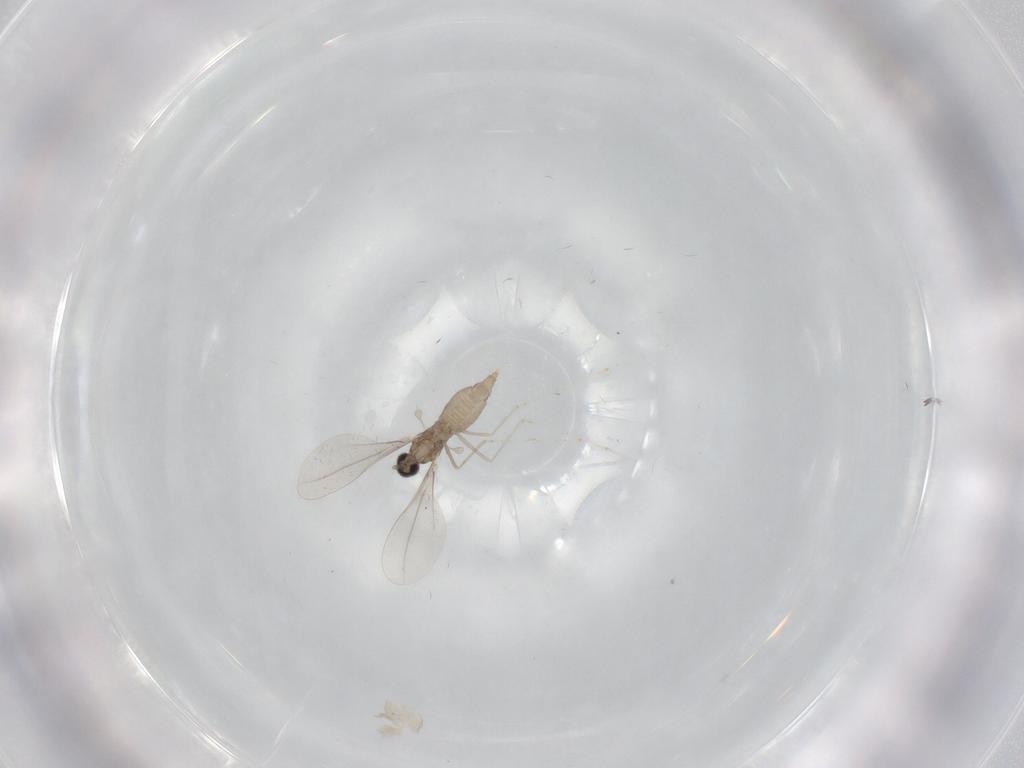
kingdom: Animalia
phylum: Arthropoda
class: Insecta
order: Diptera
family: Cecidomyiidae
